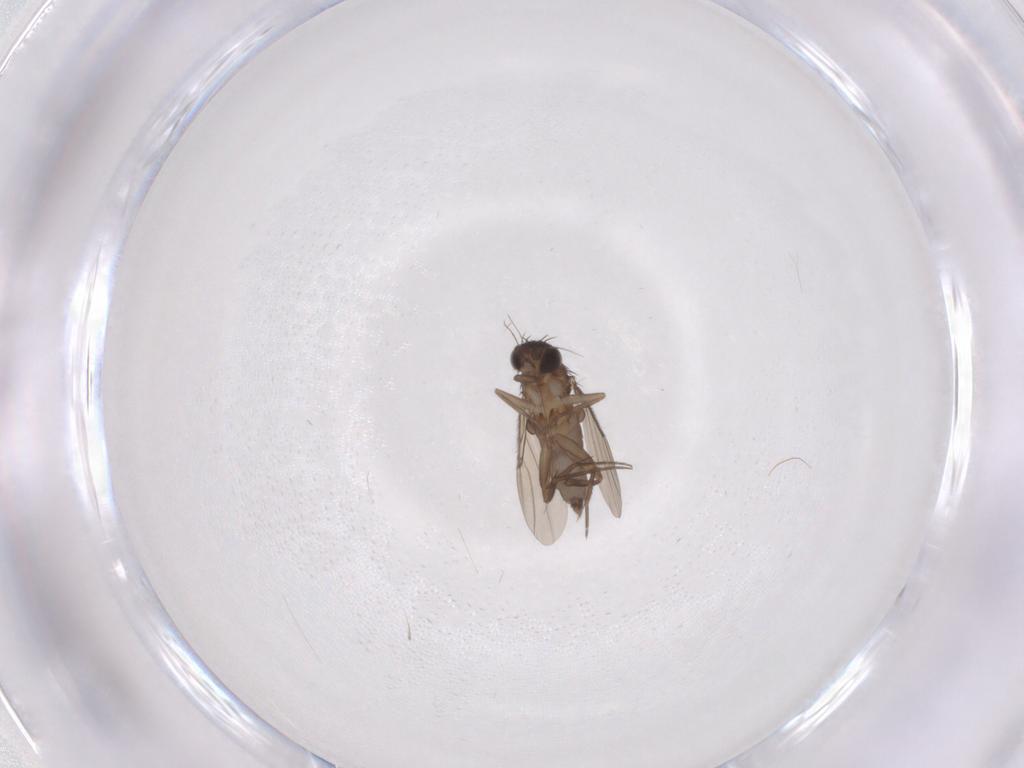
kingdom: Animalia
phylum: Arthropoda
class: Insecta
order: Diptera
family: Phoridae
